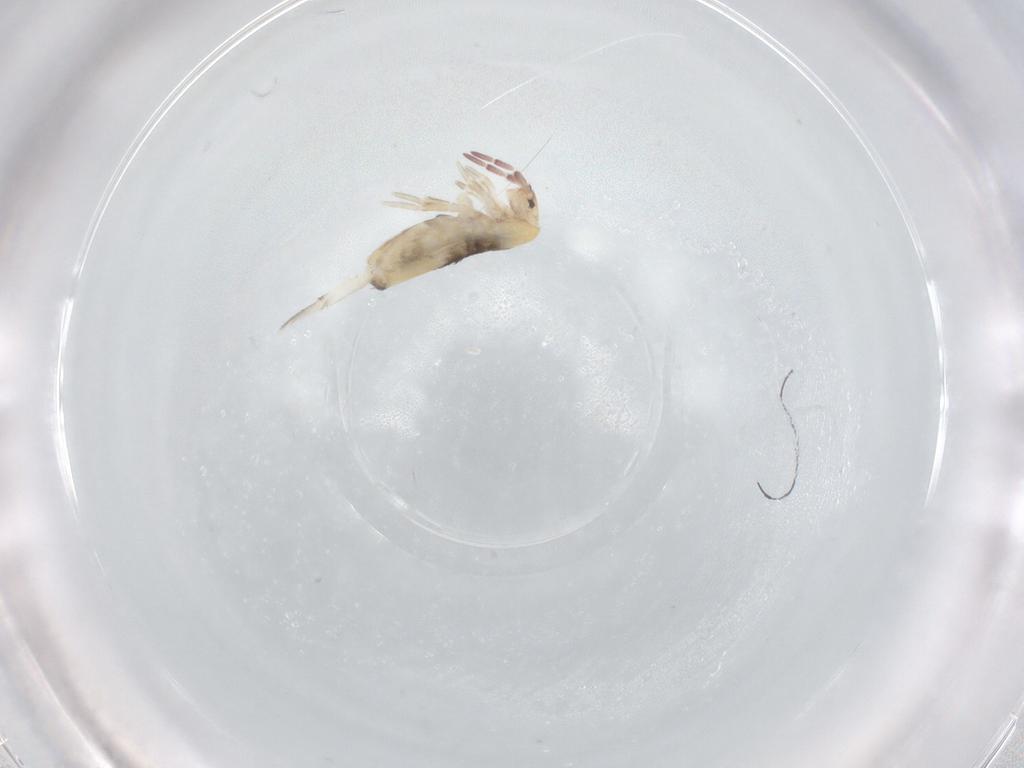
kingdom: Animalia
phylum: Arthropoda
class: Collembola
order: Entomobryomorpha
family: Entomobryidae
